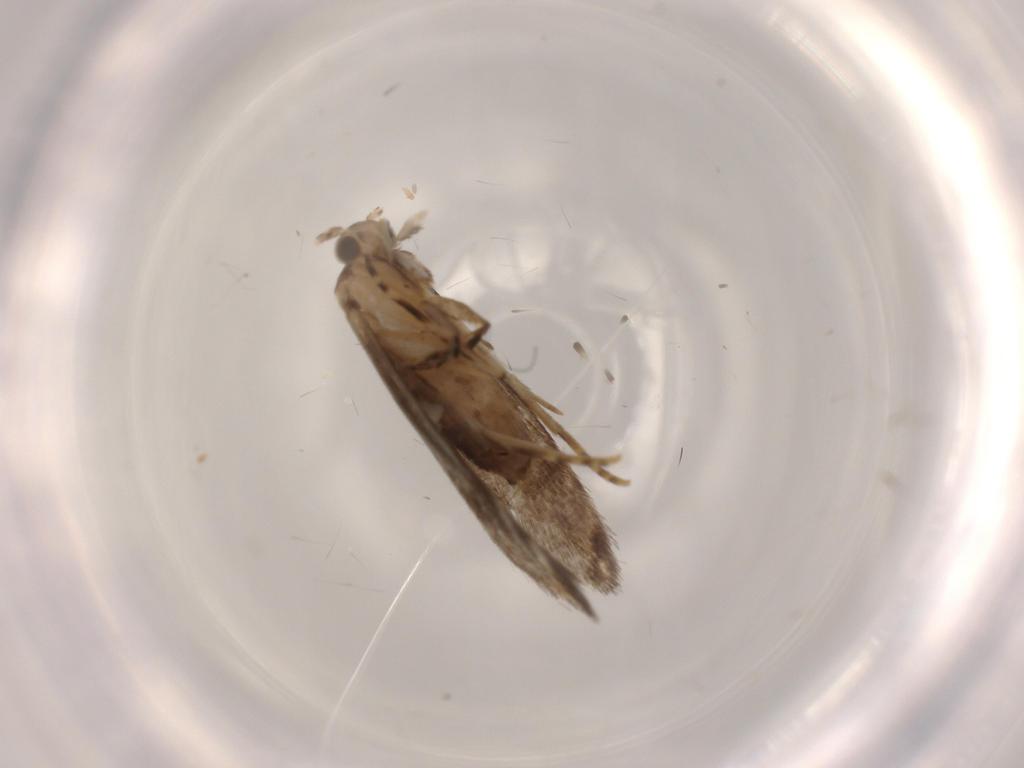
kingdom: Animalia
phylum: Arthropoda
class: Insecta
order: Lepidoptera
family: Tineidae
